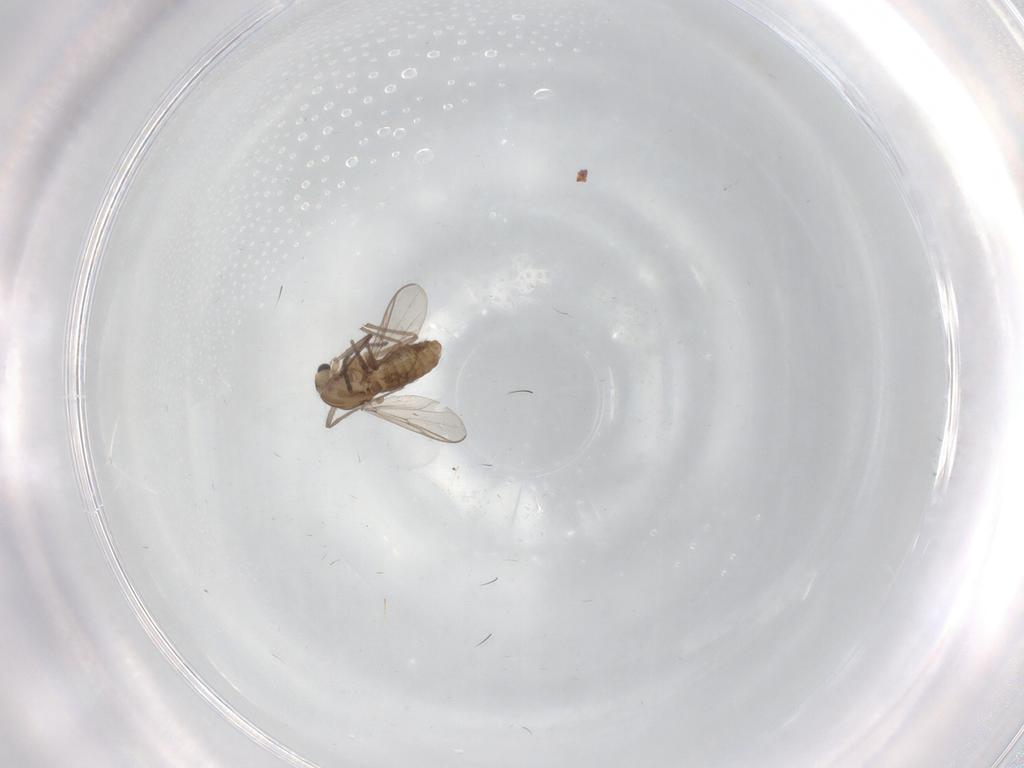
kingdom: Animalia
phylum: Arthropoda
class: Insecta
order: Diptera
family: Chironomidae
